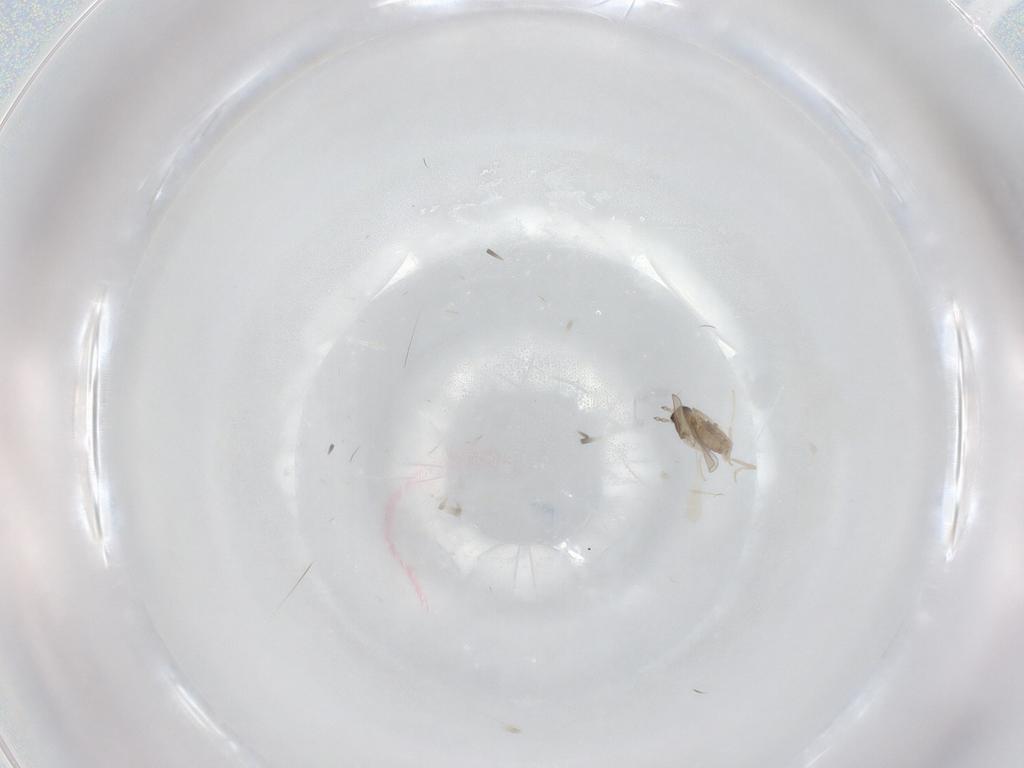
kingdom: Animalia
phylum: Arthropoda
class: Insecta
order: Diptera
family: Cecidomyiidae
